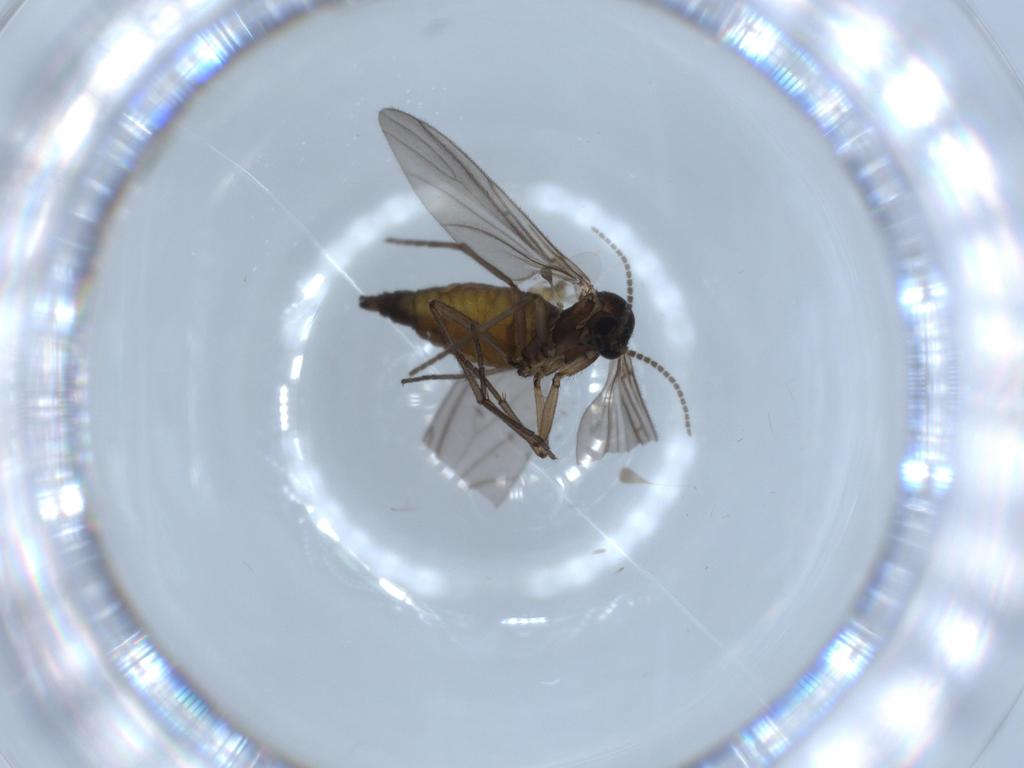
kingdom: Animalia
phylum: Arthropoda
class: Insecta
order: Diptera
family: Sciaridae
